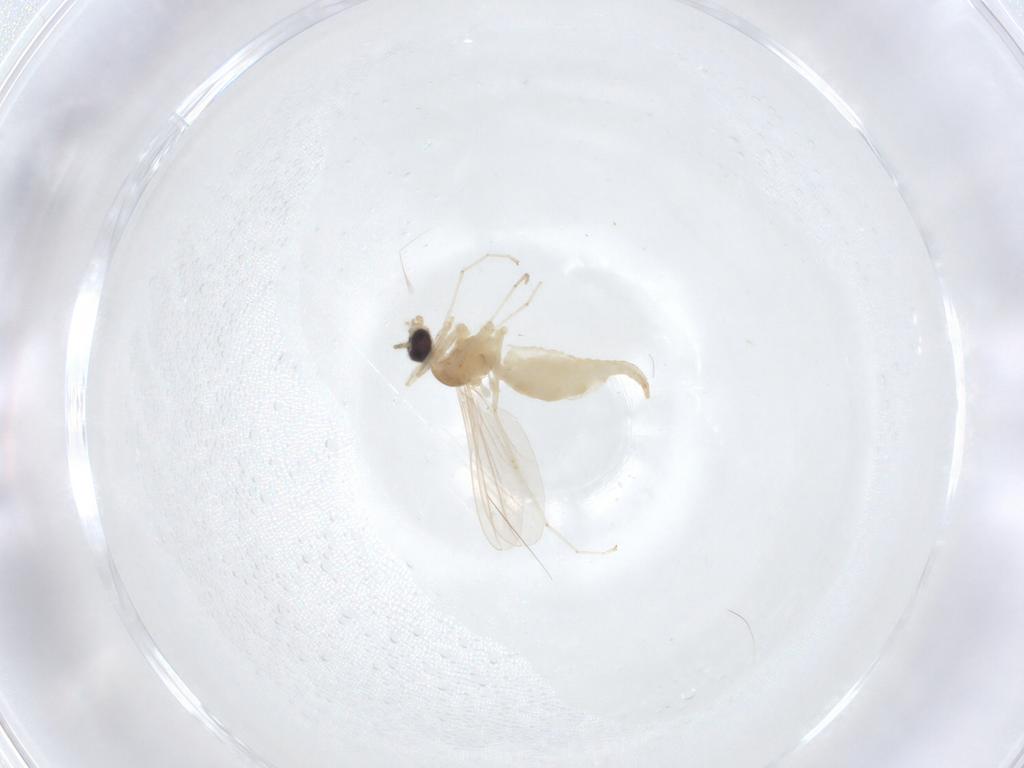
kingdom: Animalia
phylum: Arthropoda
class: Insecta
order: Diptera
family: Cecidomyiidae
